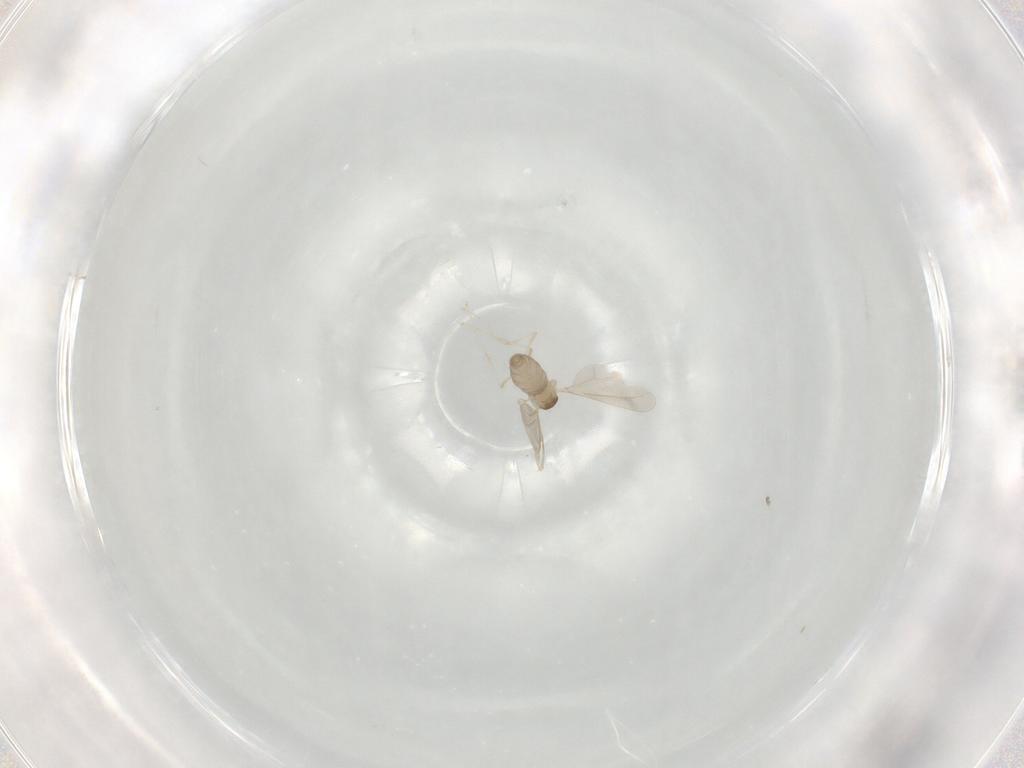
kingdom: Animalia
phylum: Arthropoda
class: Insecta
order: Diptera
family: Cecidomyiidae
